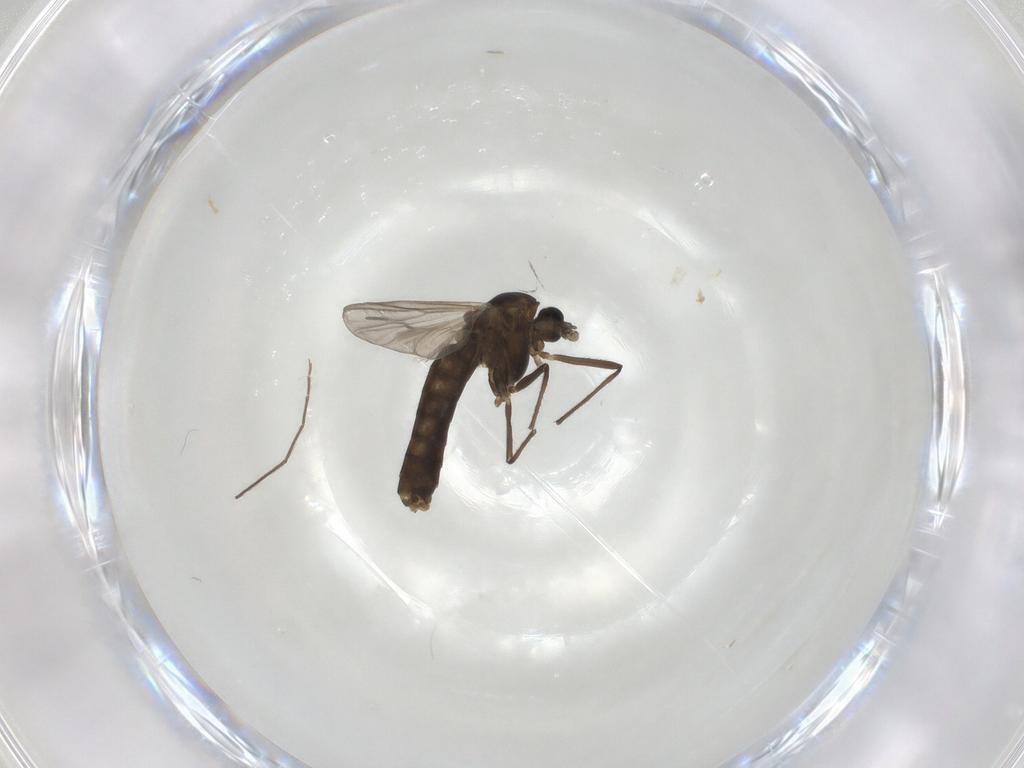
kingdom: Animalia
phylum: Arthropoda
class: Insecta
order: Diptera
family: Chironomidae
